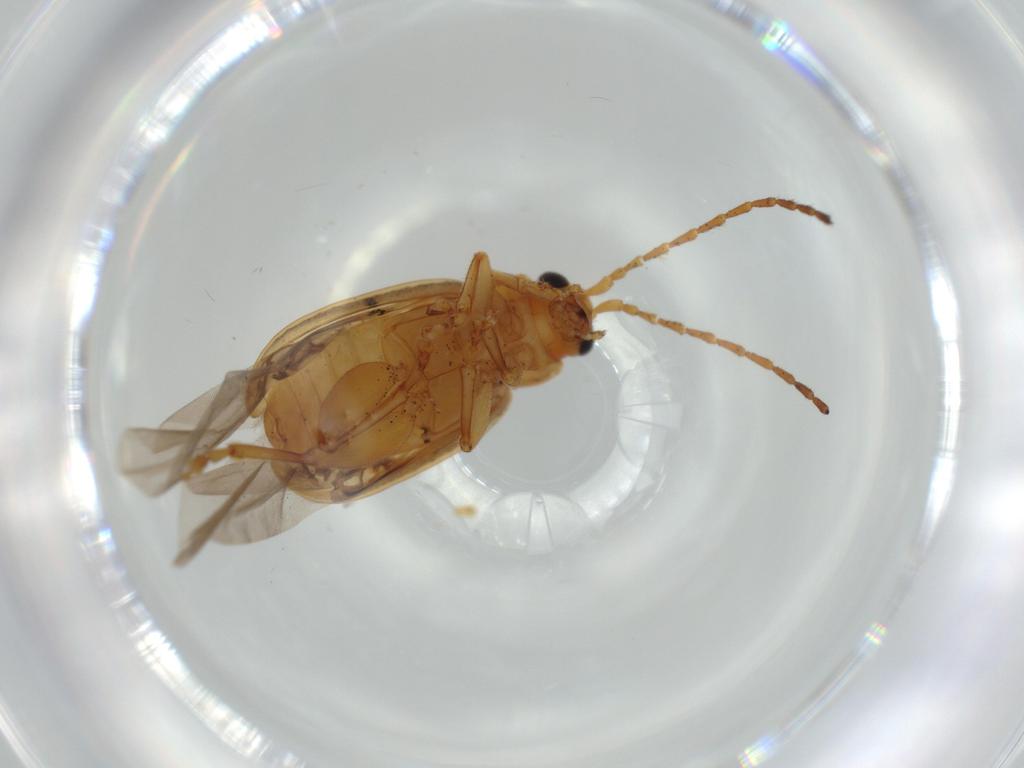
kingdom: Animalia
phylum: Arthropoda
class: Insecta
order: Coleoptera
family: Chrysomelidae
